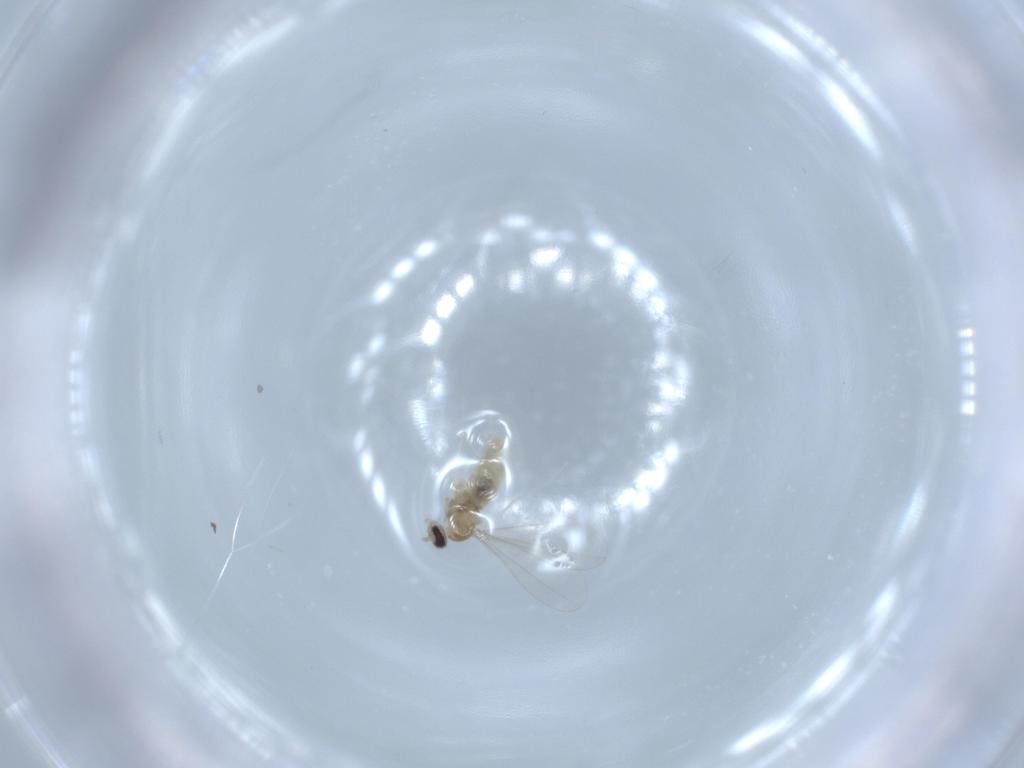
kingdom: Animalia
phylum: Arthropoda
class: Insecta
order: Diptera
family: Cecidomyiidae
